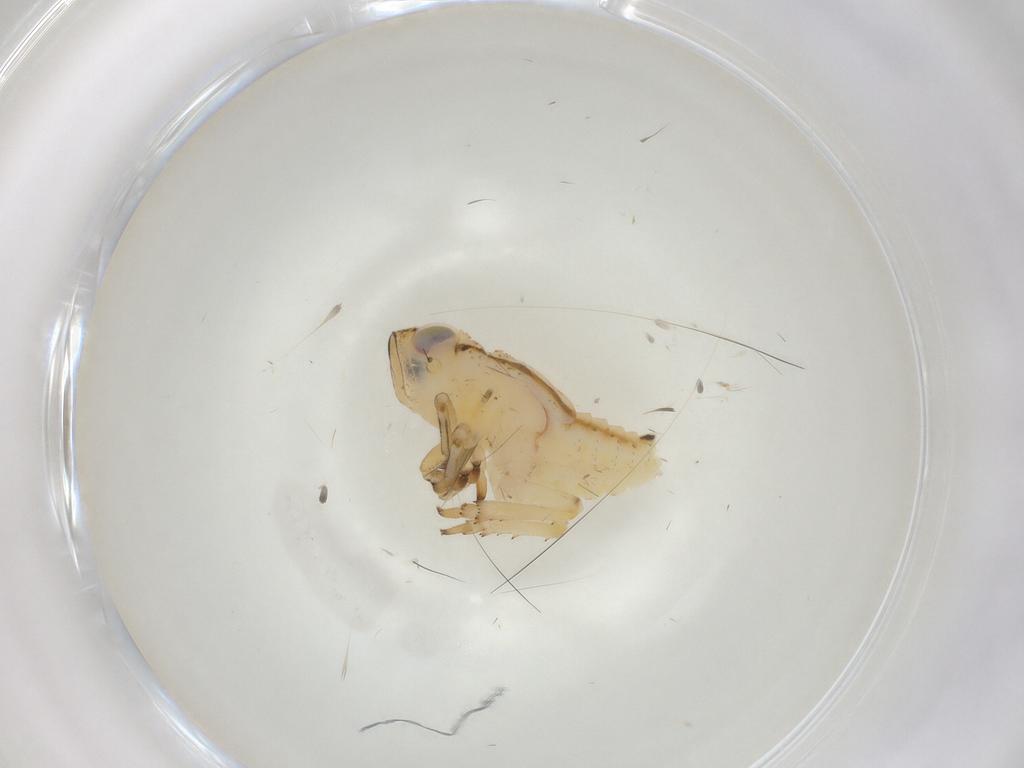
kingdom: Animalia
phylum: Arthropoda
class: Insecta
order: Hemiptera
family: Issidae
